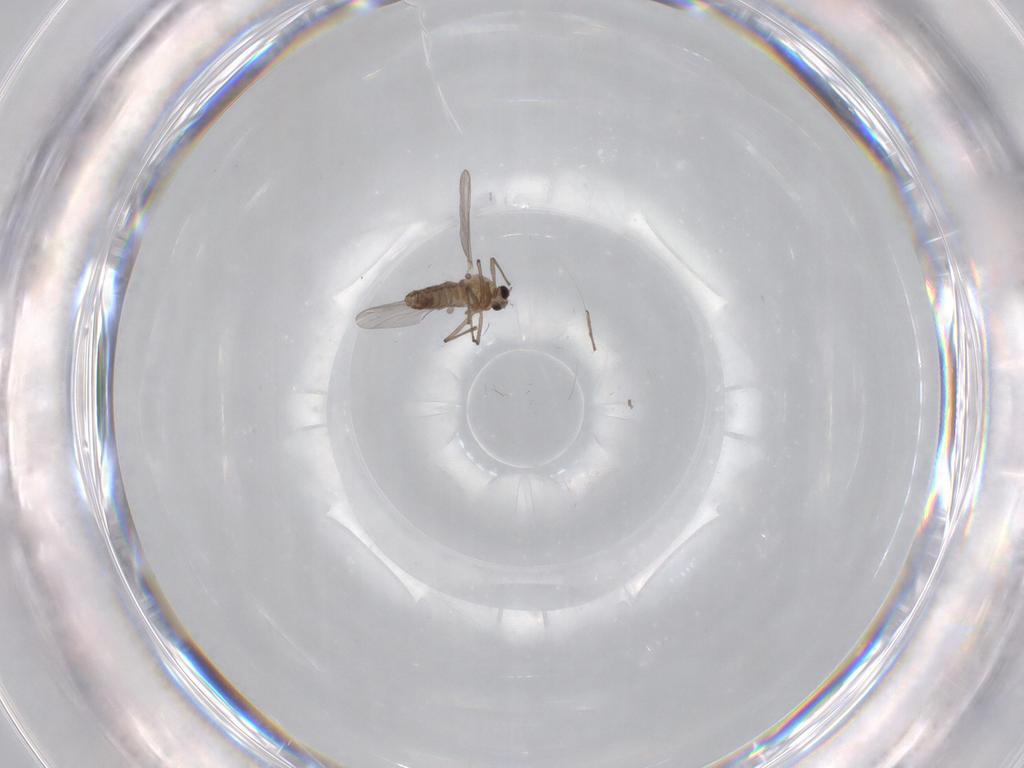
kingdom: Animalia
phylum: Arthropoda
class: Insecta
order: Diptera
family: Chironomidae
